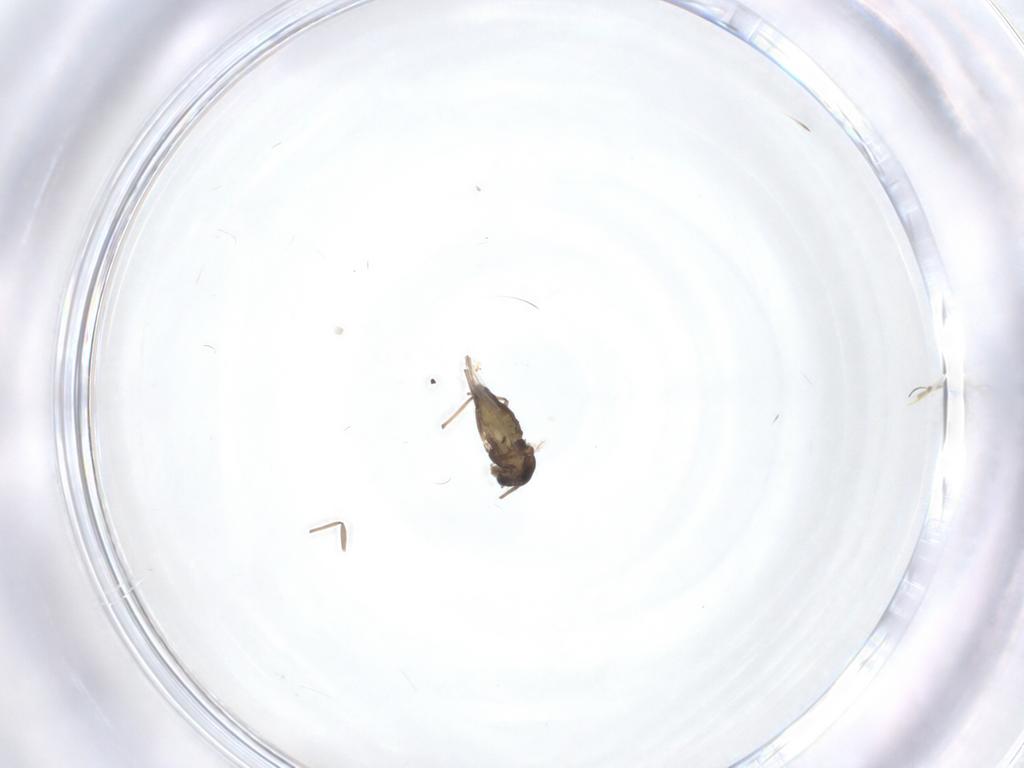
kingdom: Animalia
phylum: Arthropoda
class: Insecta
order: Diptera
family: Chironomidae
